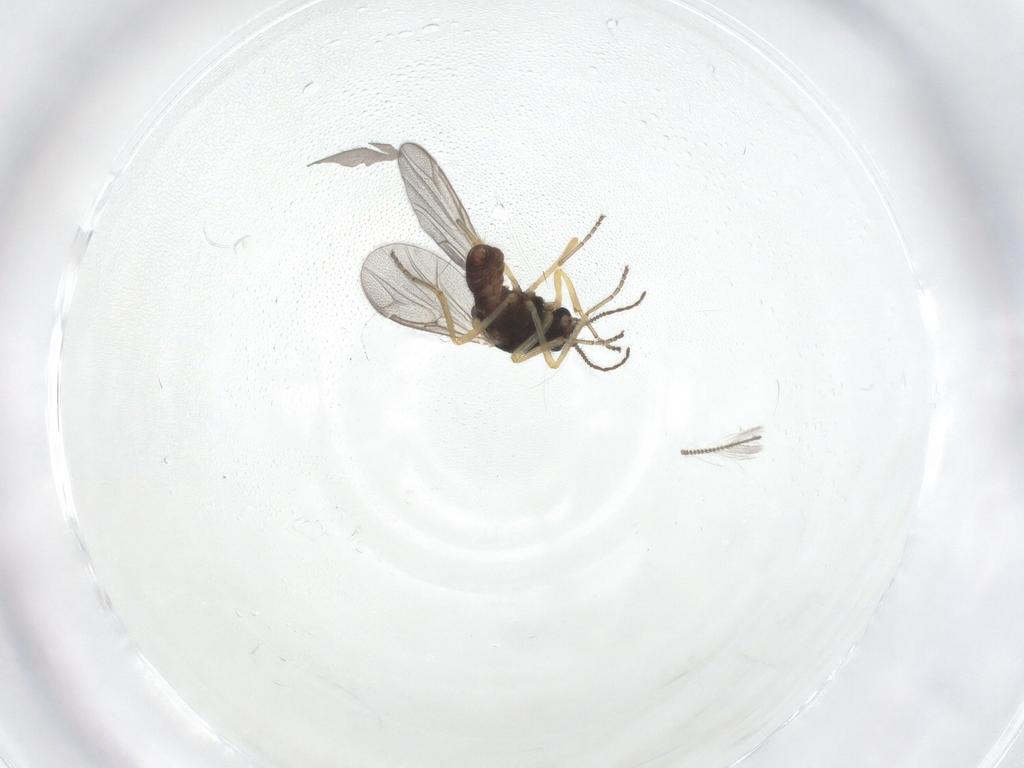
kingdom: Animalia
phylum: Arthropoda
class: Insecta
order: Diptera
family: Ceratopogonidae
